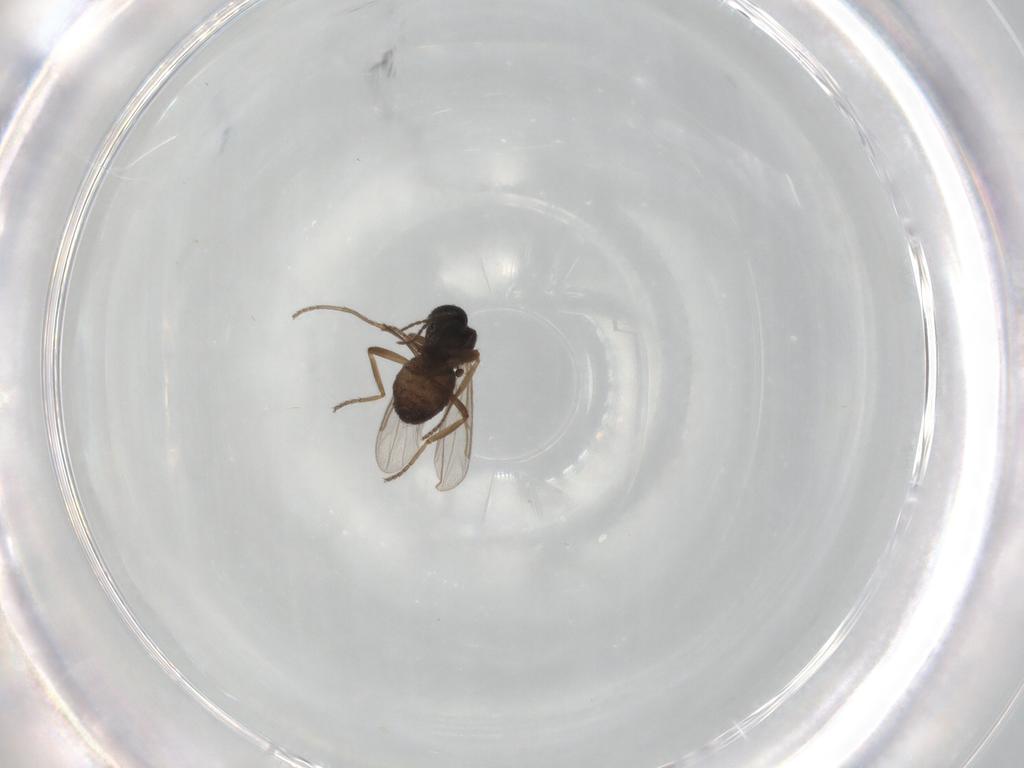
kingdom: Animalia
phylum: Arthropoda
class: Insecta
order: Diptera
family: Ceratopogonidae
